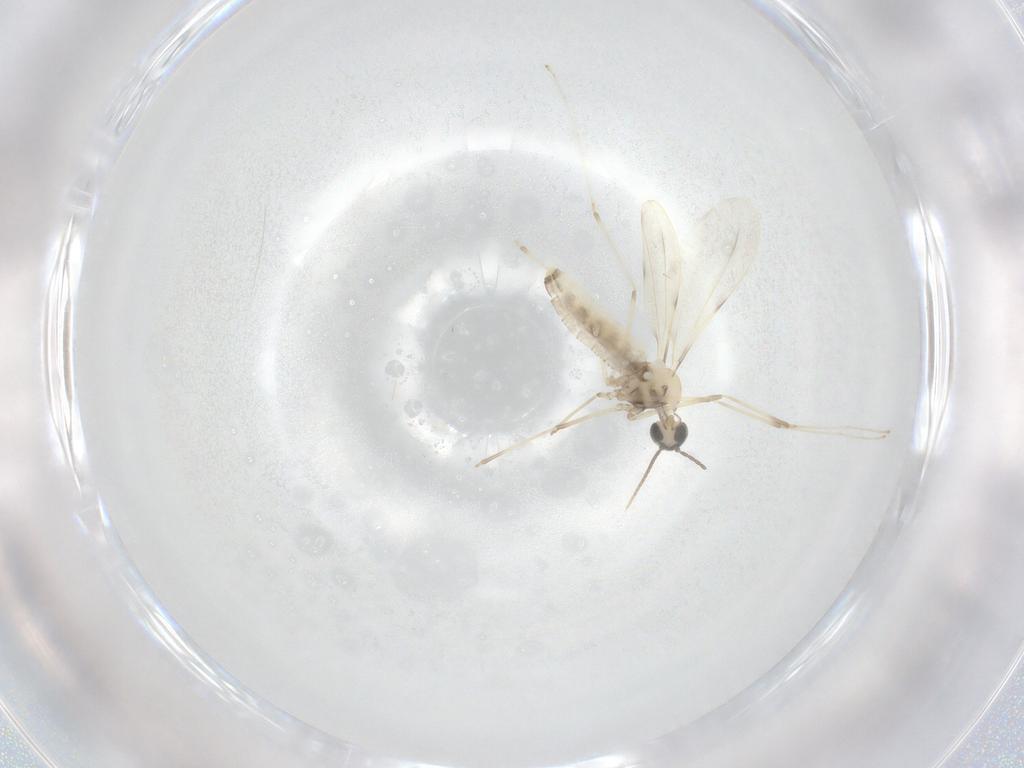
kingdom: Animalia
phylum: Arthropoda
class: Insecta
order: Diptera
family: Cecidomyiidae
